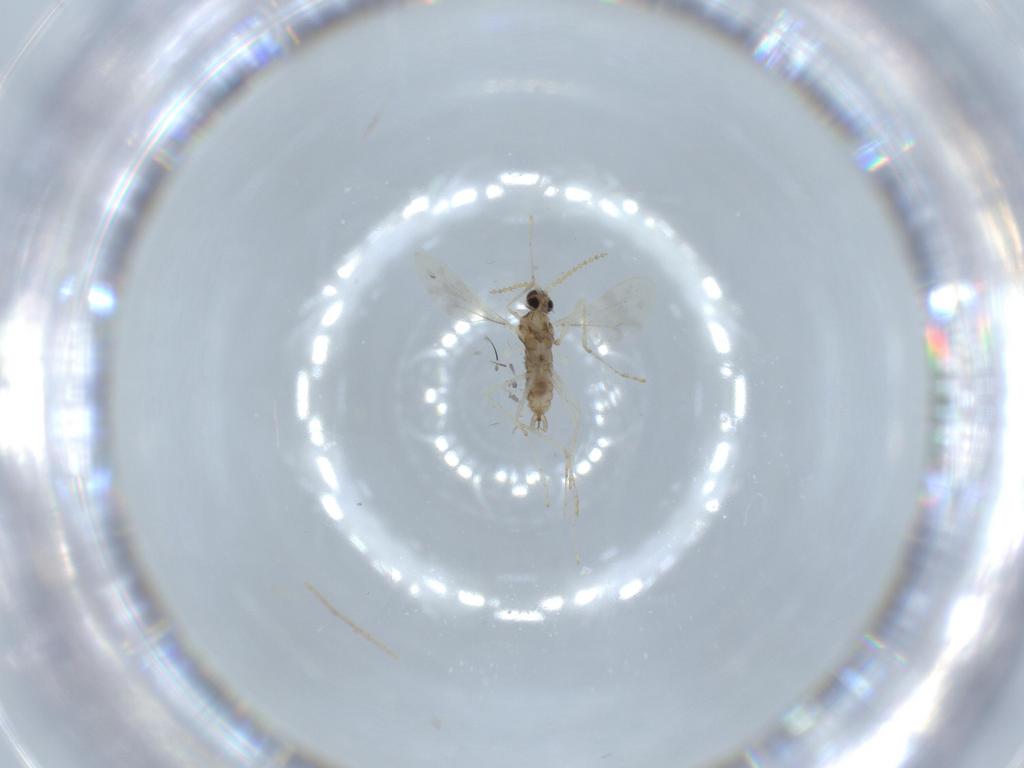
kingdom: Animalia
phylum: Arthropoda
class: Insecta
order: Diptera
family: Cecidomyiidae
